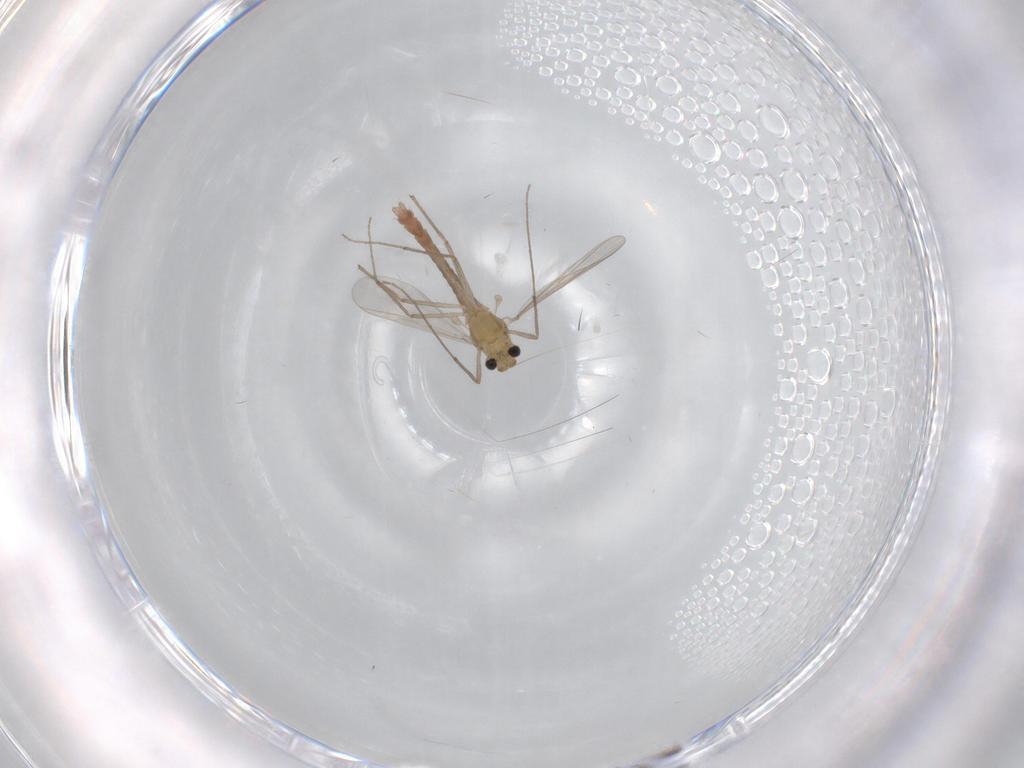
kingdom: Animalia
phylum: Arthropoda
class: Insecta
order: Diptera
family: Chironomidae
